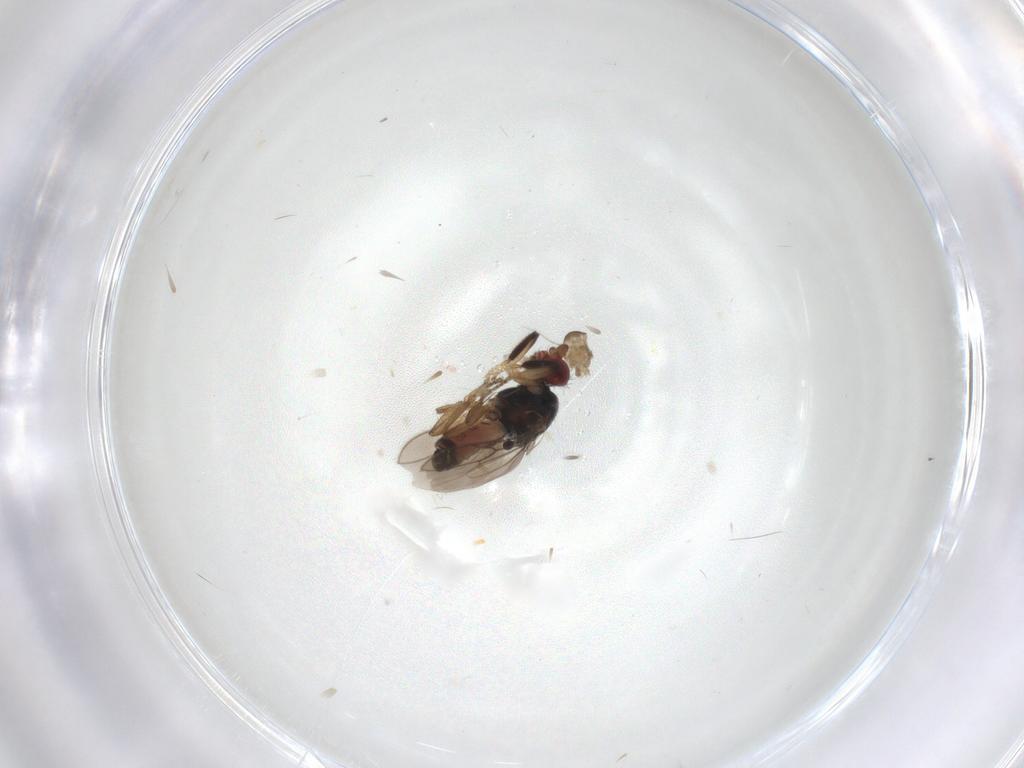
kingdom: Animalia
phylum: Arthropoda
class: Insecta
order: Diptera
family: Sphaeroceridae
